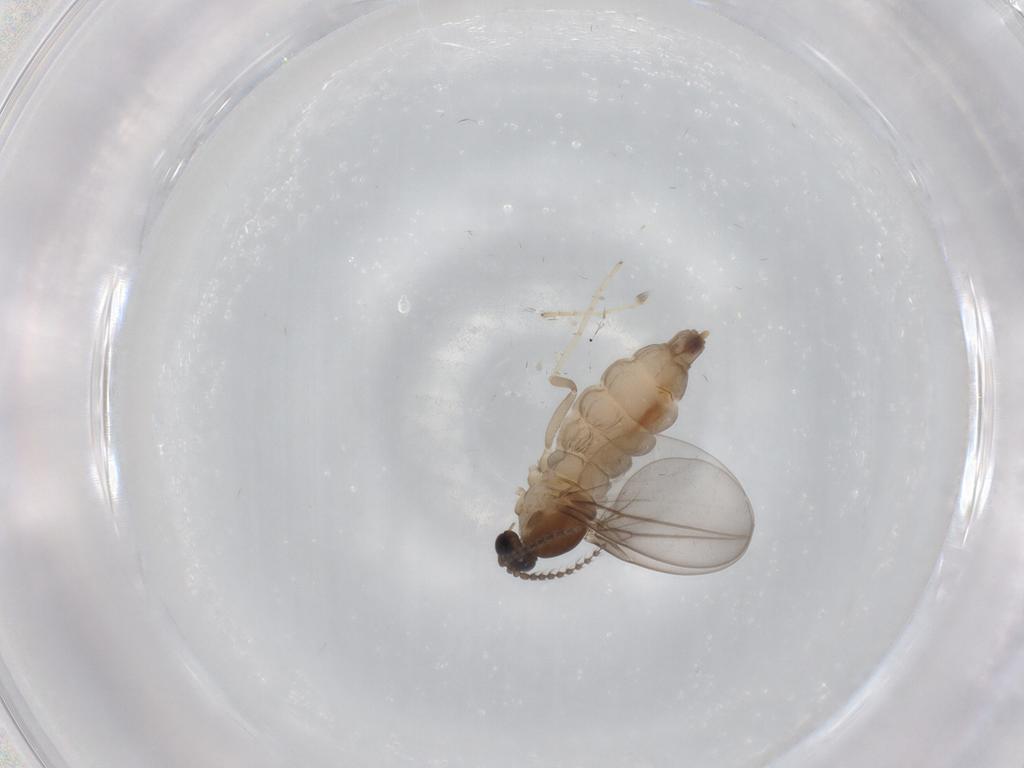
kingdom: Animalia
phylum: Arthropoda
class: Insecta
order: Diptera
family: Cecidomyiidae
